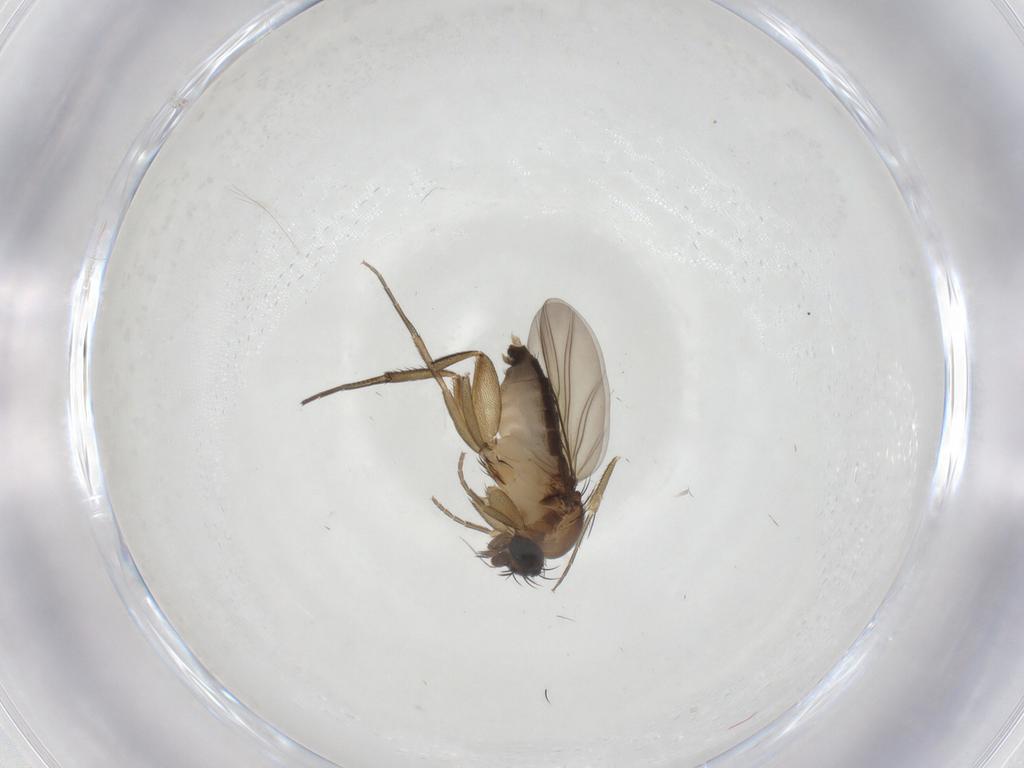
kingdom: Animalia
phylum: Arthropoda
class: Insecta
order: Diptera
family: Phoridae
